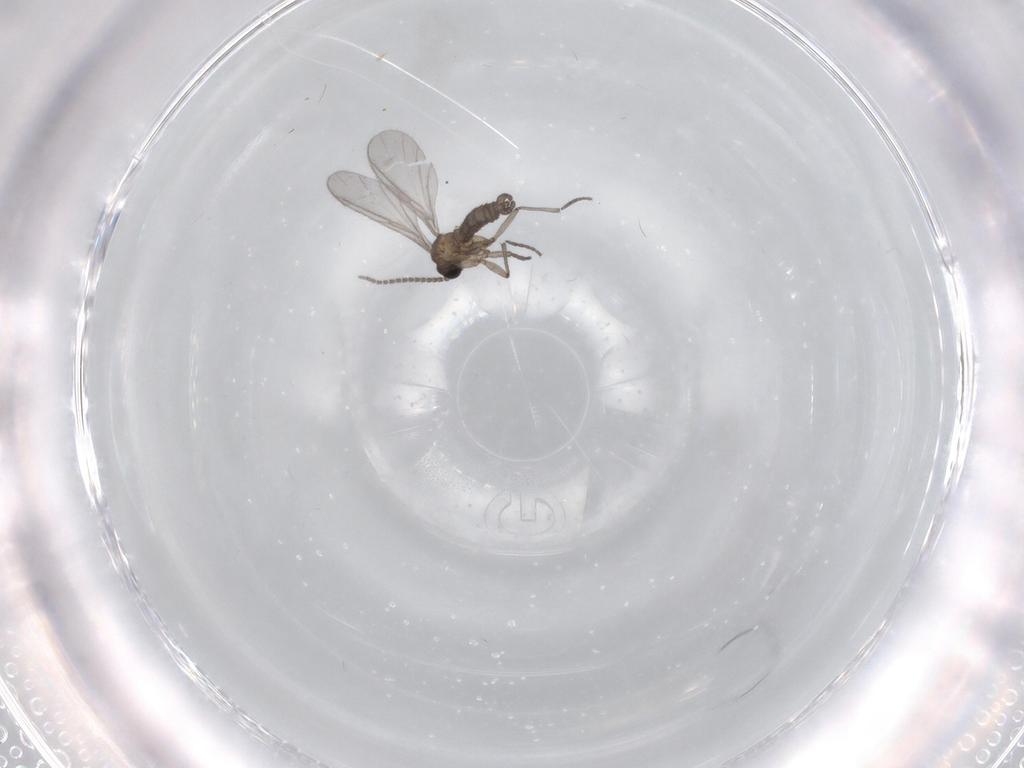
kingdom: Animalia
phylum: Arthropoda
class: Insecta
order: Diptera
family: Sciaridae
